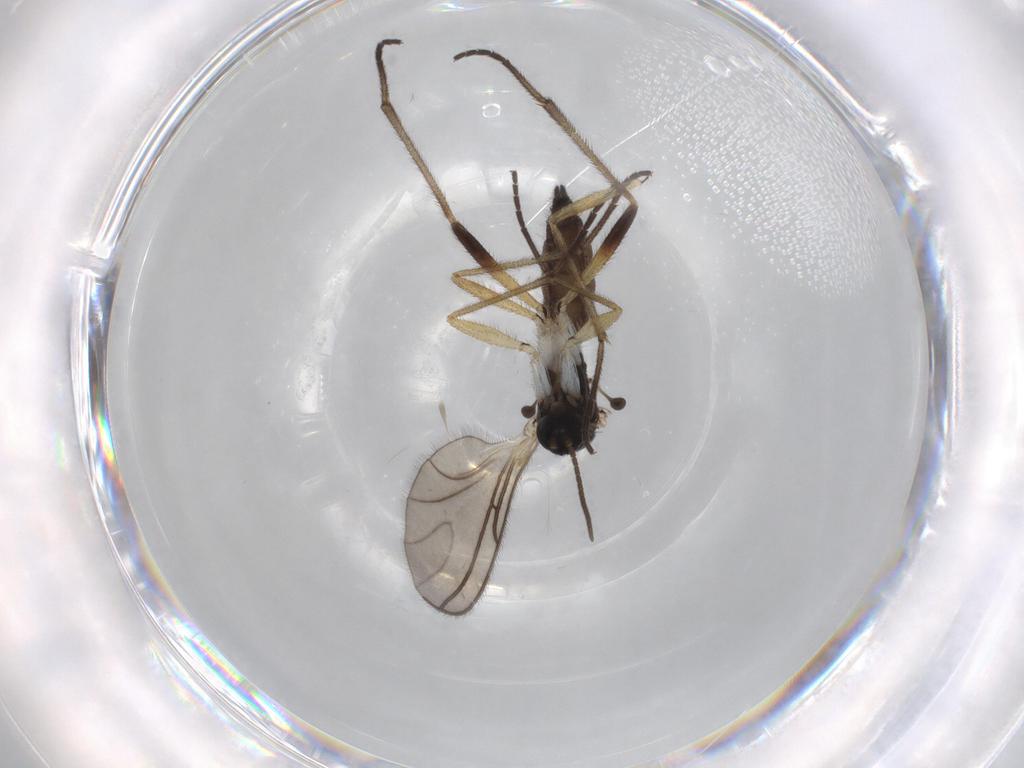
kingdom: Animalia
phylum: Arthropoda
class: Insecta
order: Diptera
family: Sciaridae
